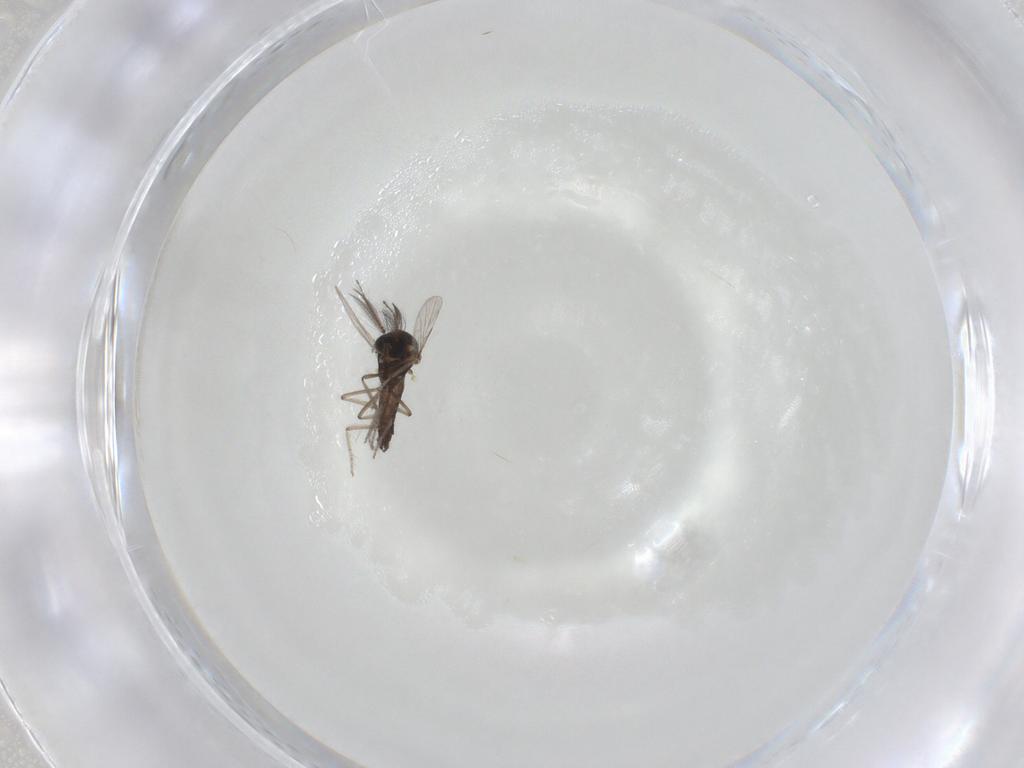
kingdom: Animalia
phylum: Arthropoda
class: Insecta
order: Diptera
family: Ceratopogonidae
